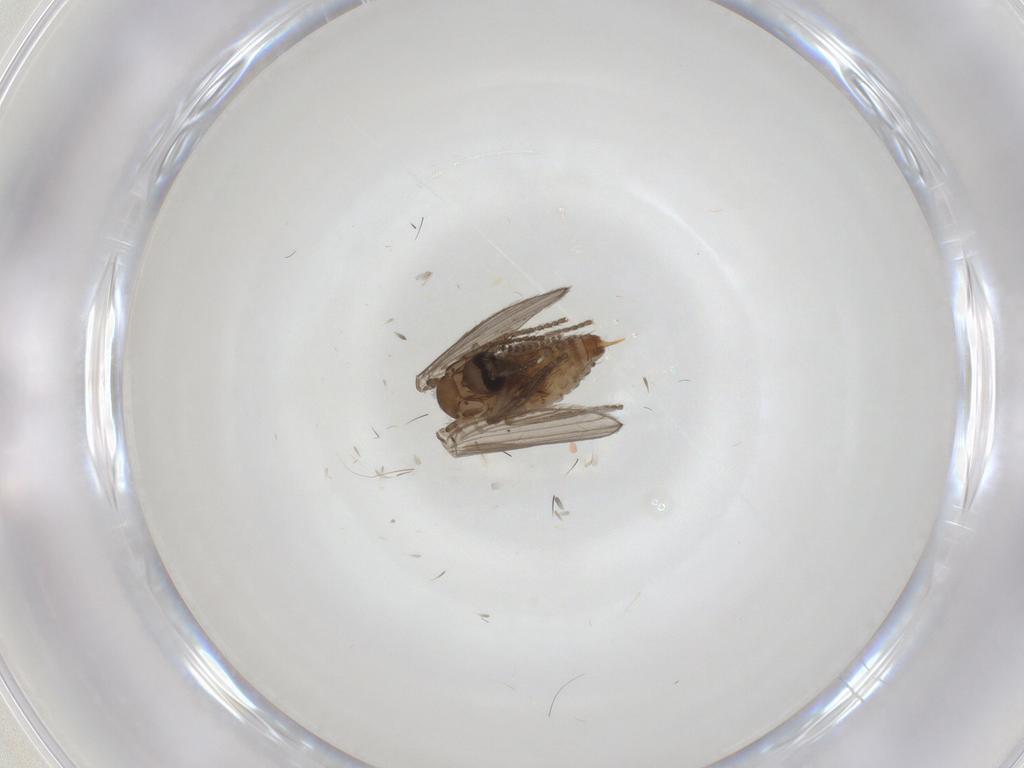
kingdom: Animalia
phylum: Arthropoda
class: Insecta
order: Diptera
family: Psychodidae
